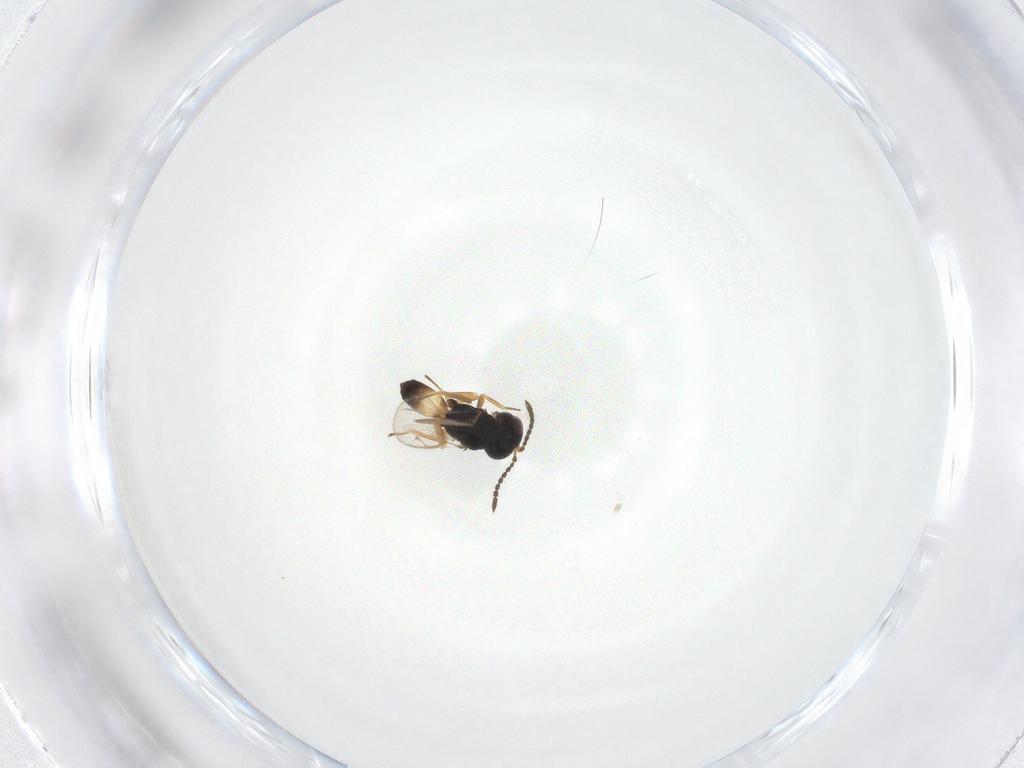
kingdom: Animalia
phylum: Arthropoda
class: Insecta
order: Hymenoptera
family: Pteromalidae
